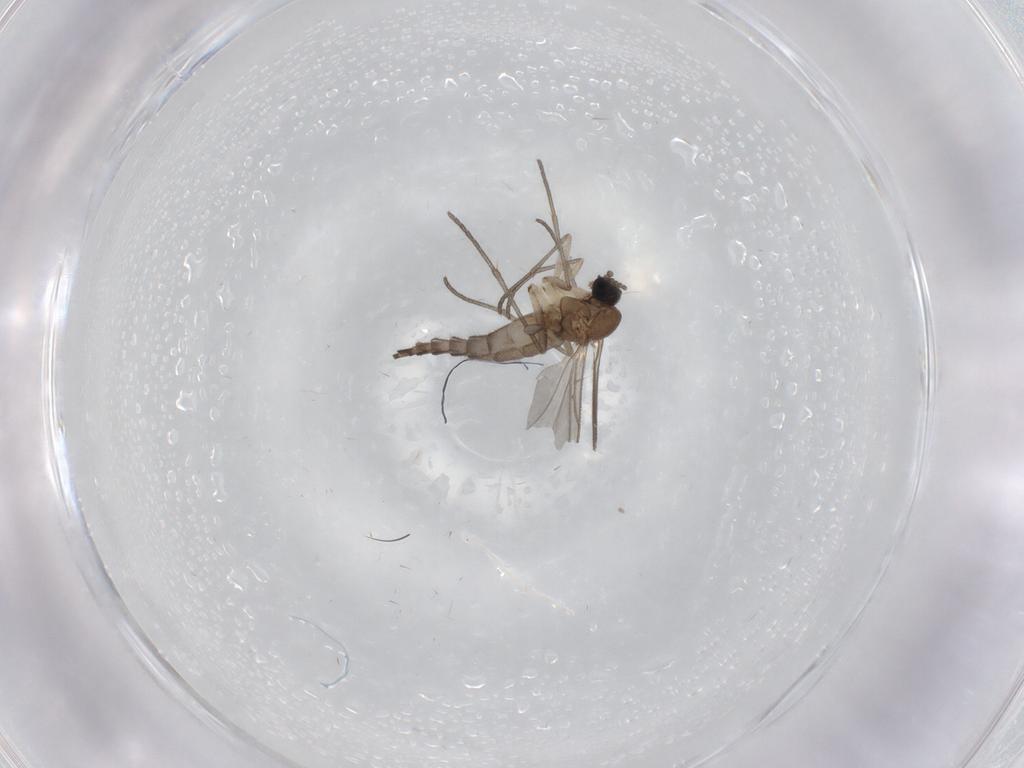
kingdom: Animalia
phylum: Arthropoda
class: Insecta
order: Diptera
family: Sciaridae
